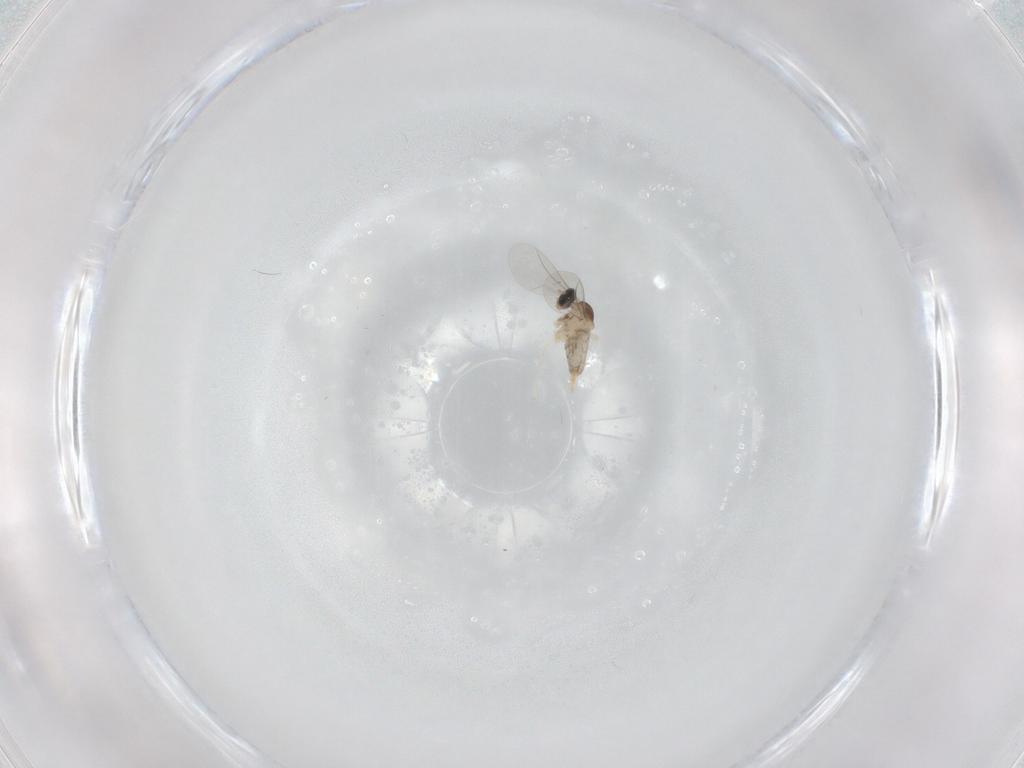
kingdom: Animalia
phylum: Arthropoda
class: Insecta
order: Diptera
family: Cecidomyiidae
